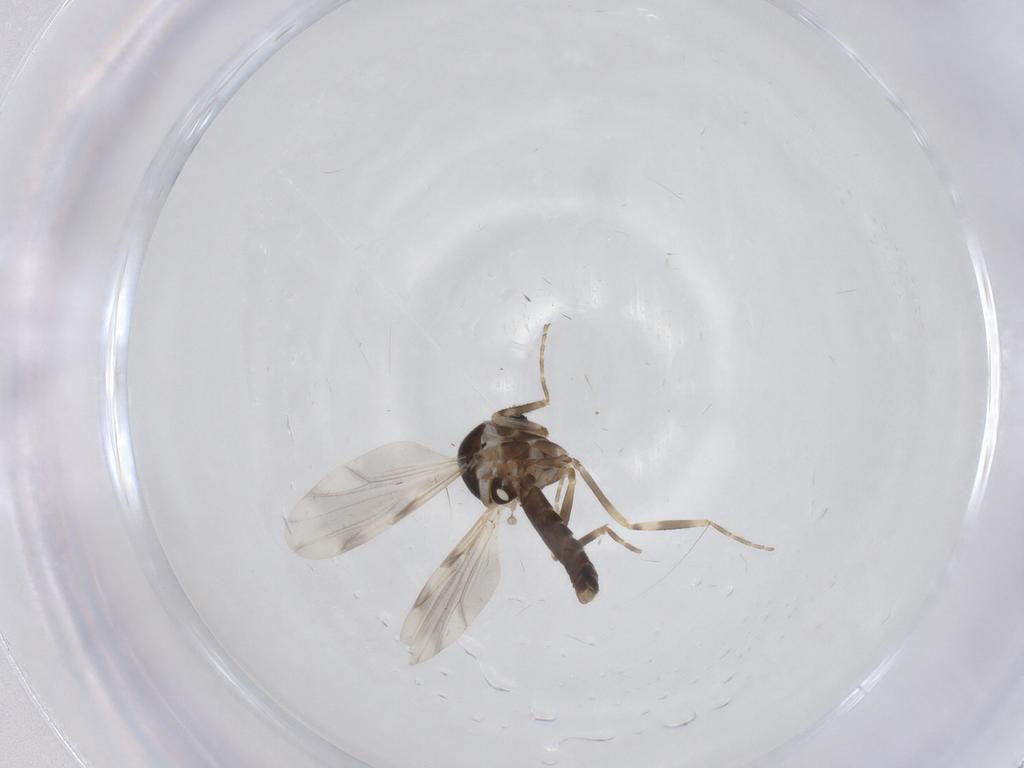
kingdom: Animalia
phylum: Arthropoda
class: Insecta
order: Diptera
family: Ceratopogonidae
